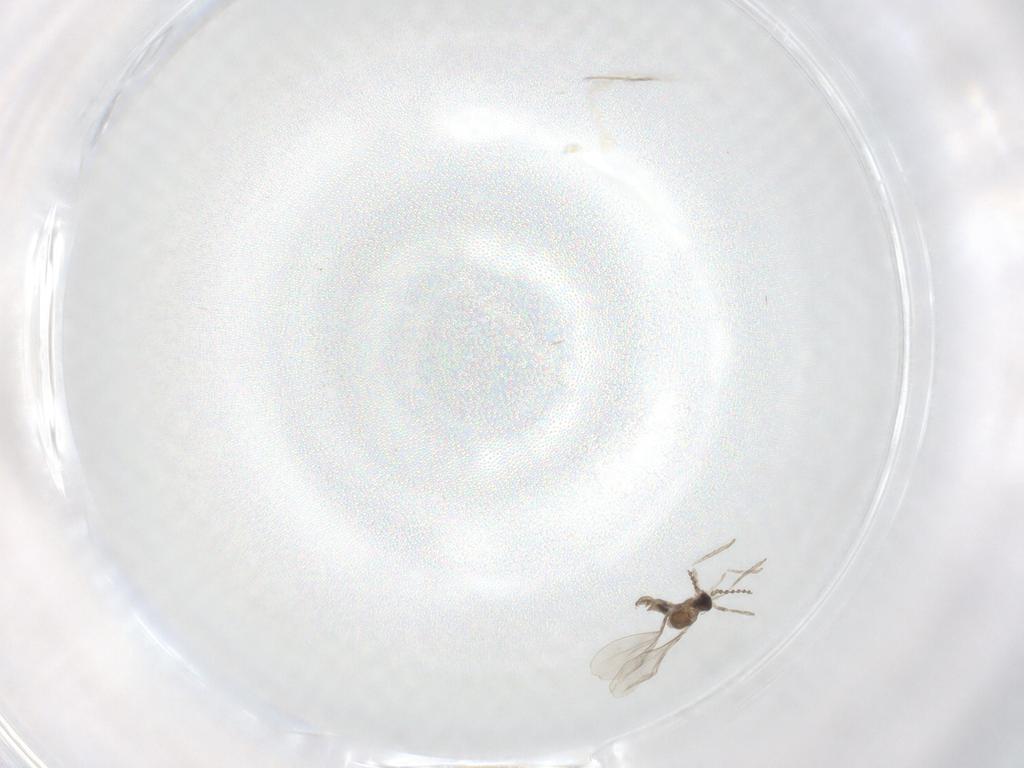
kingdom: Animalia
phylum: Arthropoda
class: Insecta
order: Diptera
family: Cecidomyiidae
